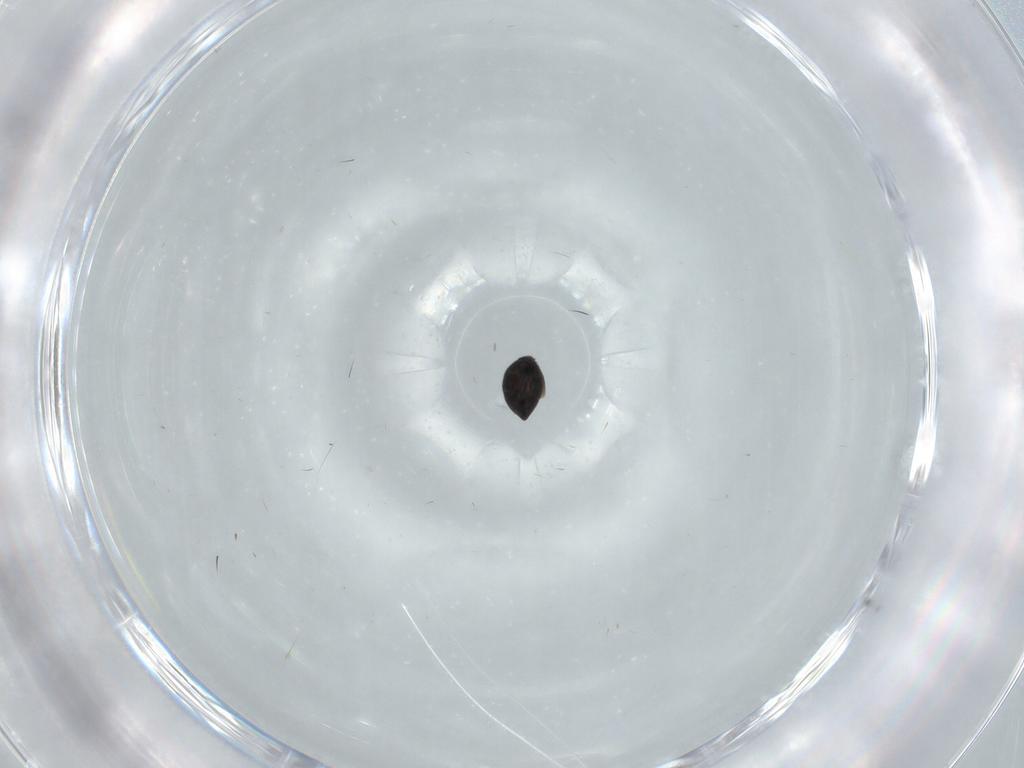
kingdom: Animalia
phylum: Arthropoda
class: Insecta
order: Hymenoptera
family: Scelionidae
